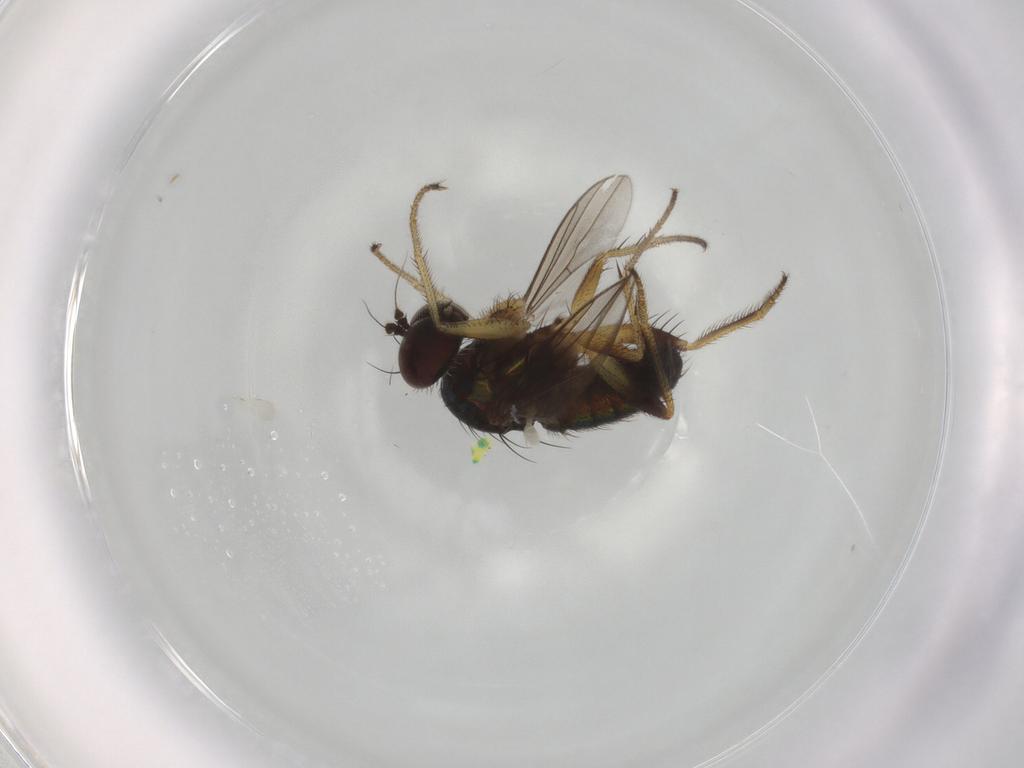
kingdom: Animalia
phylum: Arthropoda
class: Insecta
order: Diptera
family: Dolichopodidae
